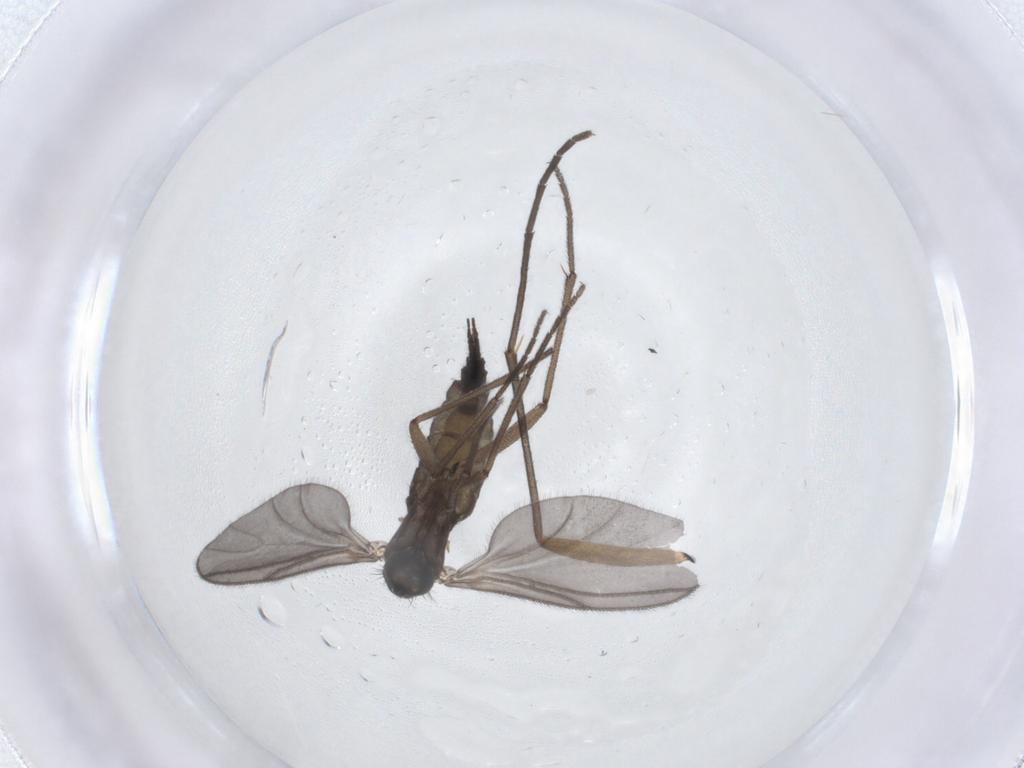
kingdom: Animalia
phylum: Arthropoda
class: Insecta
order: Diptera
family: Sciaridae
